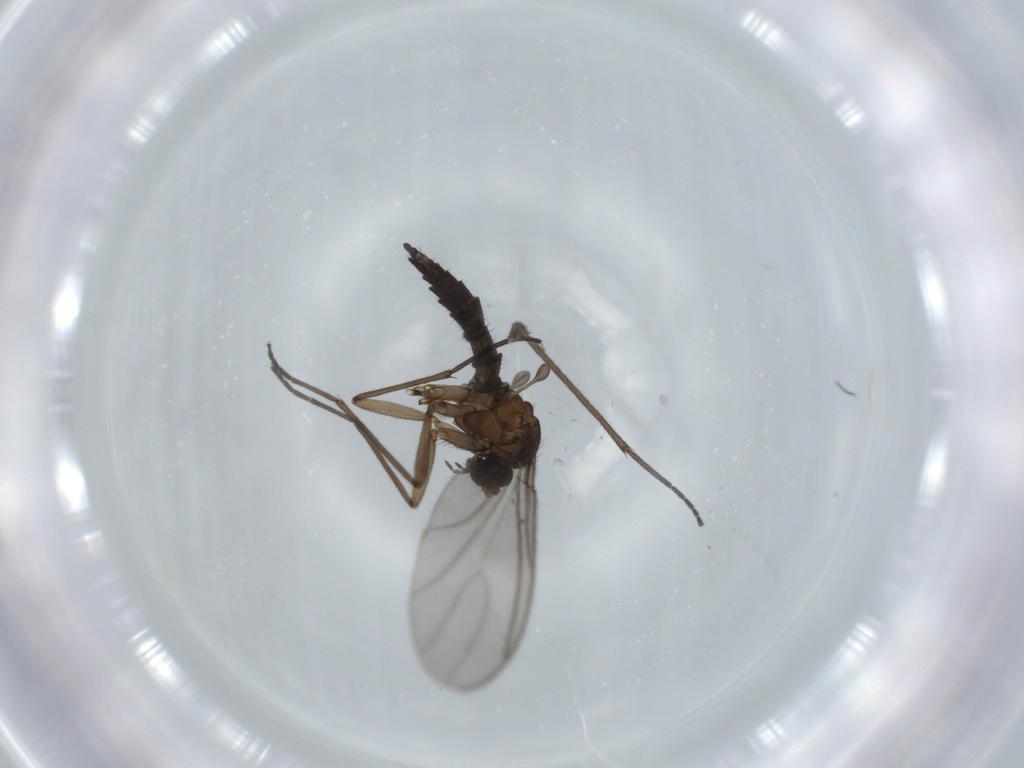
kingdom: Animalia
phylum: Arthropoda
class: Insecta
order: Diptera
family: Sciaridae
